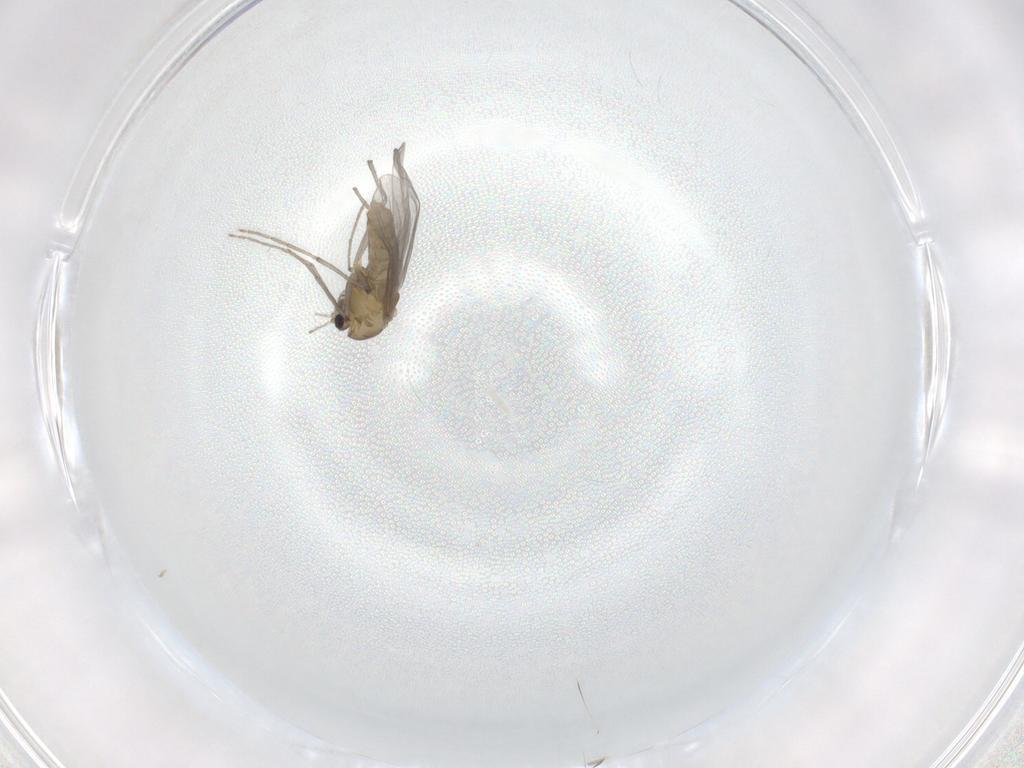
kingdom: Animalia
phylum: Arthropoda
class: Insecta
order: Diptera
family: Chironomidae
